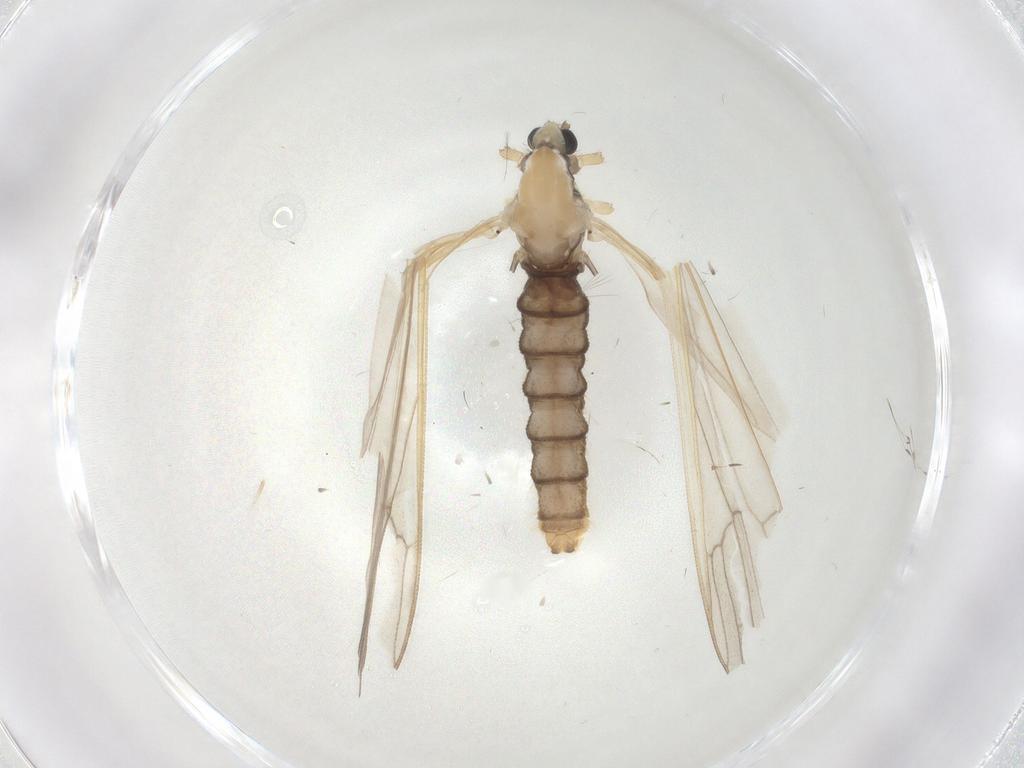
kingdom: Animalia
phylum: Arthropoda
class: Insecta
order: Diptera
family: Limoniidae
